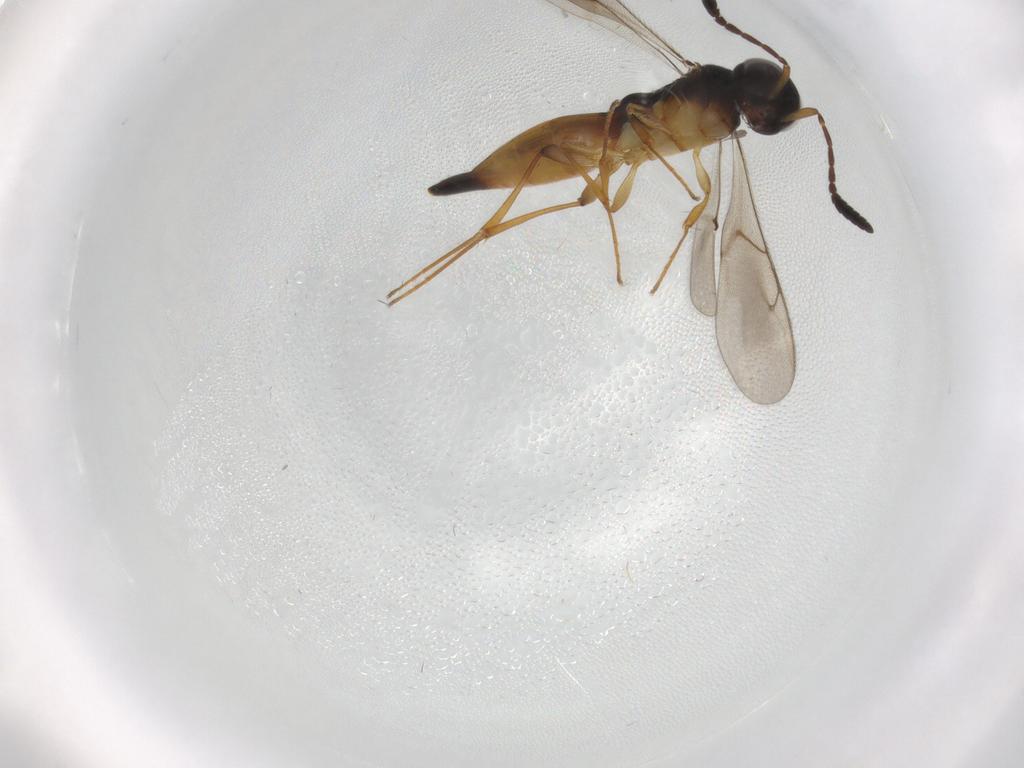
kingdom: Animalia
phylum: Arthropoda
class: Insecta
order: Hymenoptera
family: Scelionidae
